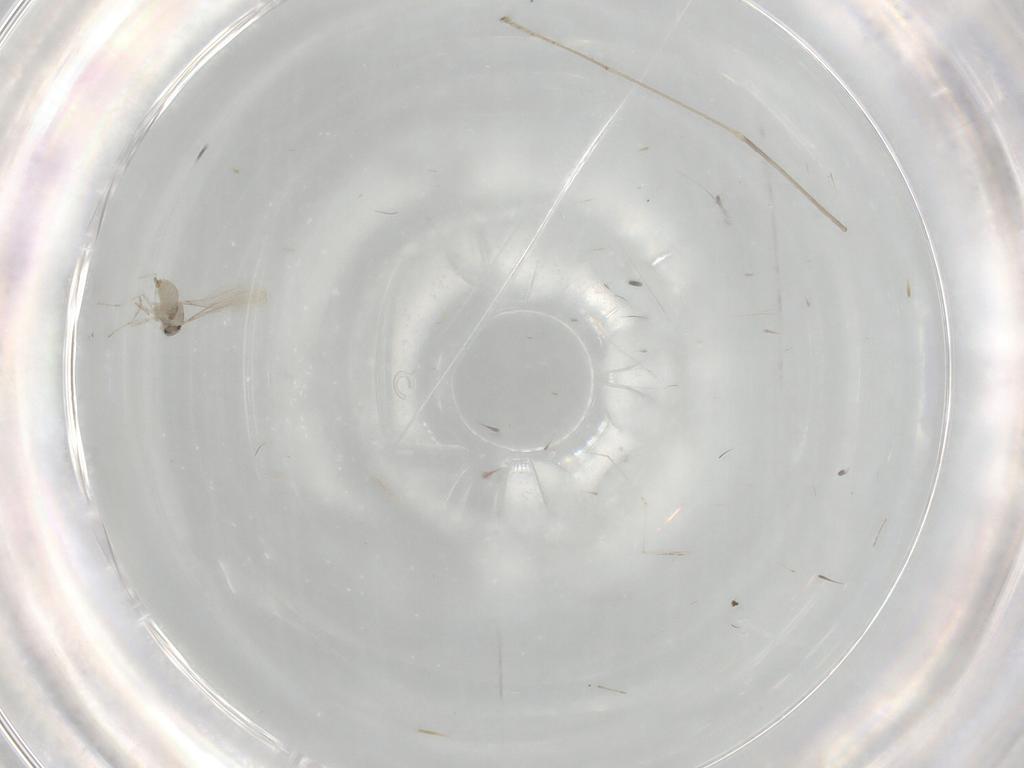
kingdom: Animalia
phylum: Arthropoda
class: Insecta
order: Diptera
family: Limoniidae
